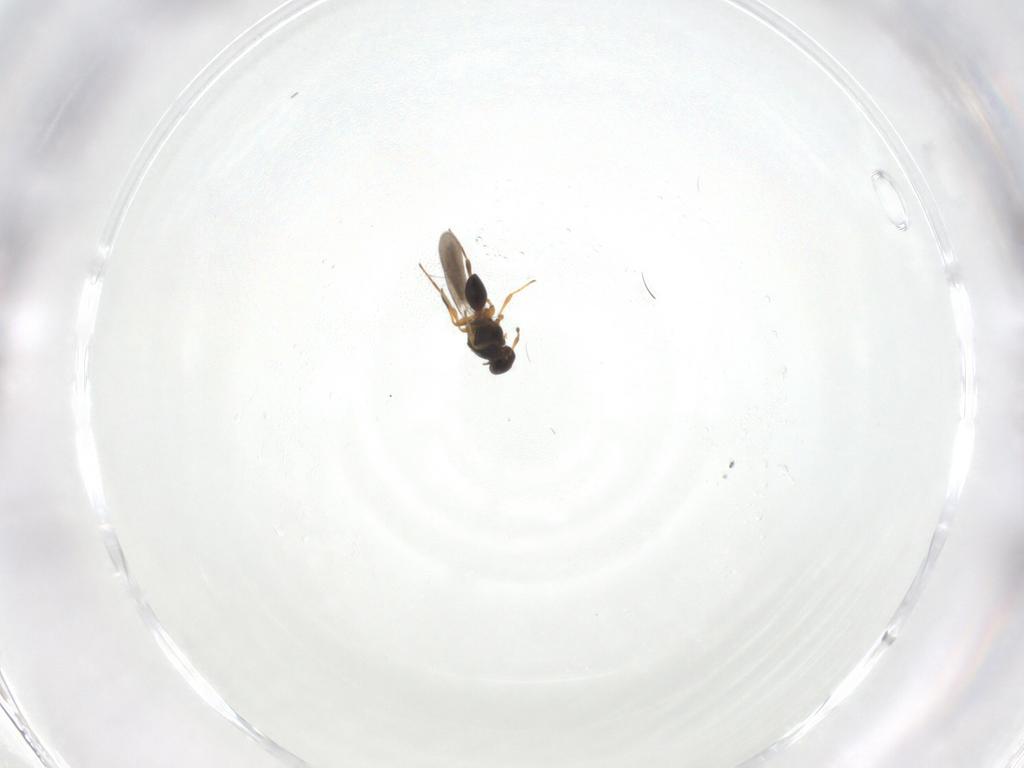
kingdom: Animalia
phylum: Arthropoda
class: Insecta
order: Hymenoptera
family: Platygastridae
